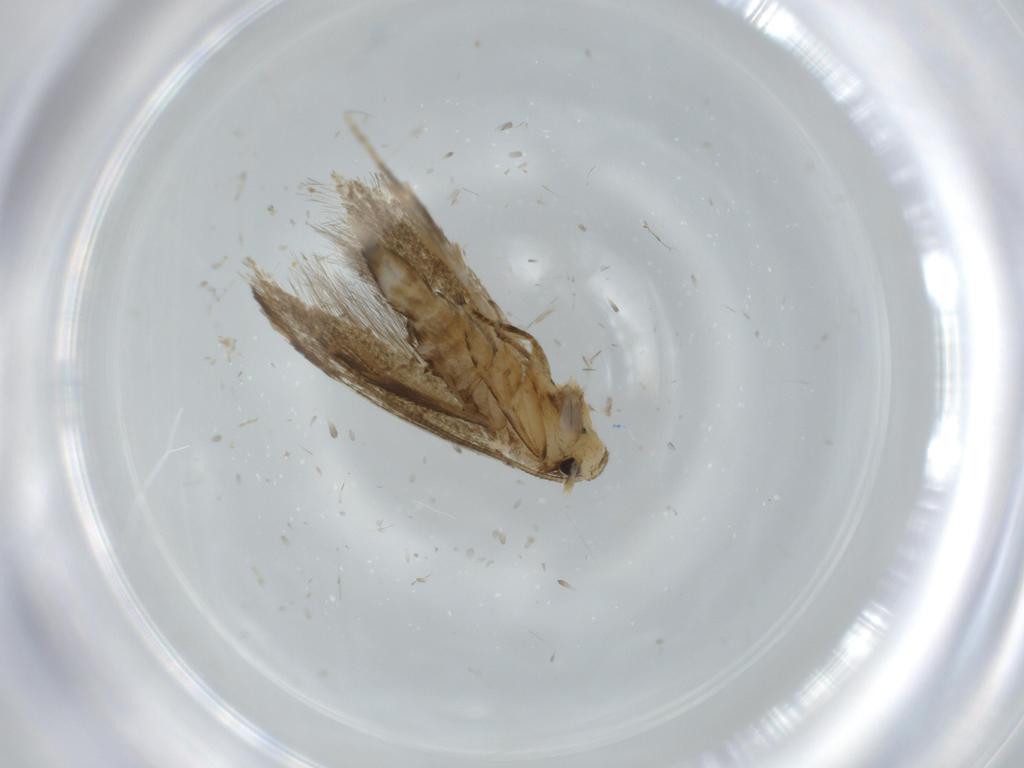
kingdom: Animalia
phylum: Arthropoda
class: Insecta
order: Lepidoptera
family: Tineidae
